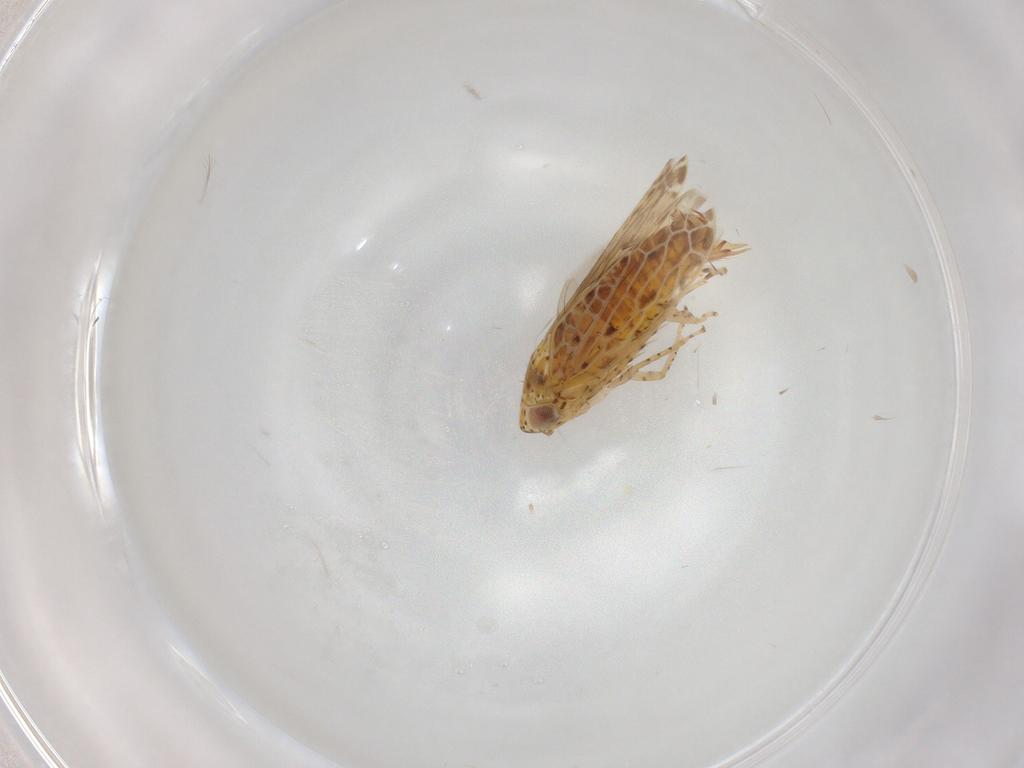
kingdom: Animalia
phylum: Arthropoda
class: Insecta
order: Hemiptera
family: Cicadellidae
